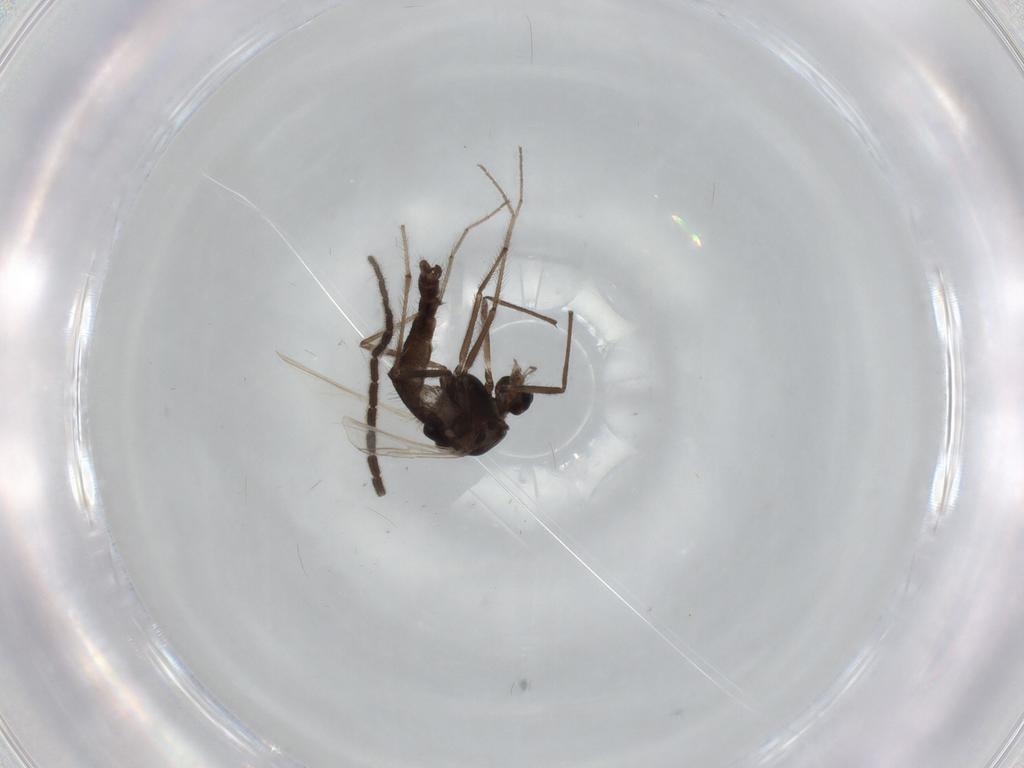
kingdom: Animalia
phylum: Arthropoda
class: Insecta
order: Diptera
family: Chironomidae
